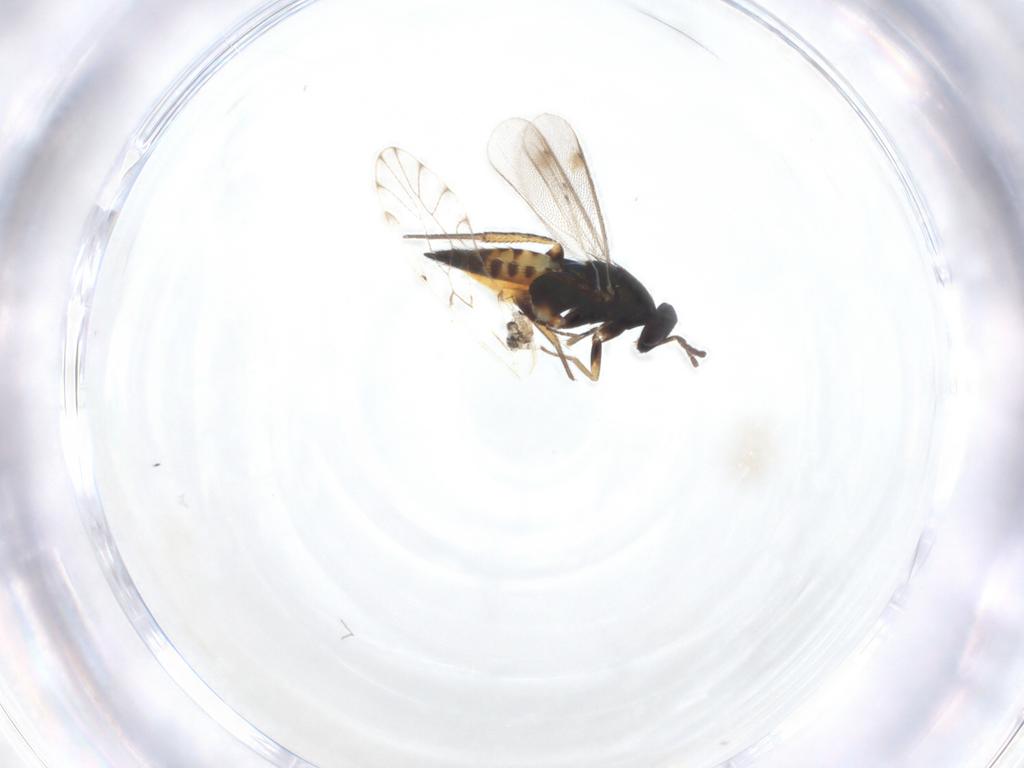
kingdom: Animalia
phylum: Arthropoda
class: Insecta
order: Hymenoptera
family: Eulophidae
